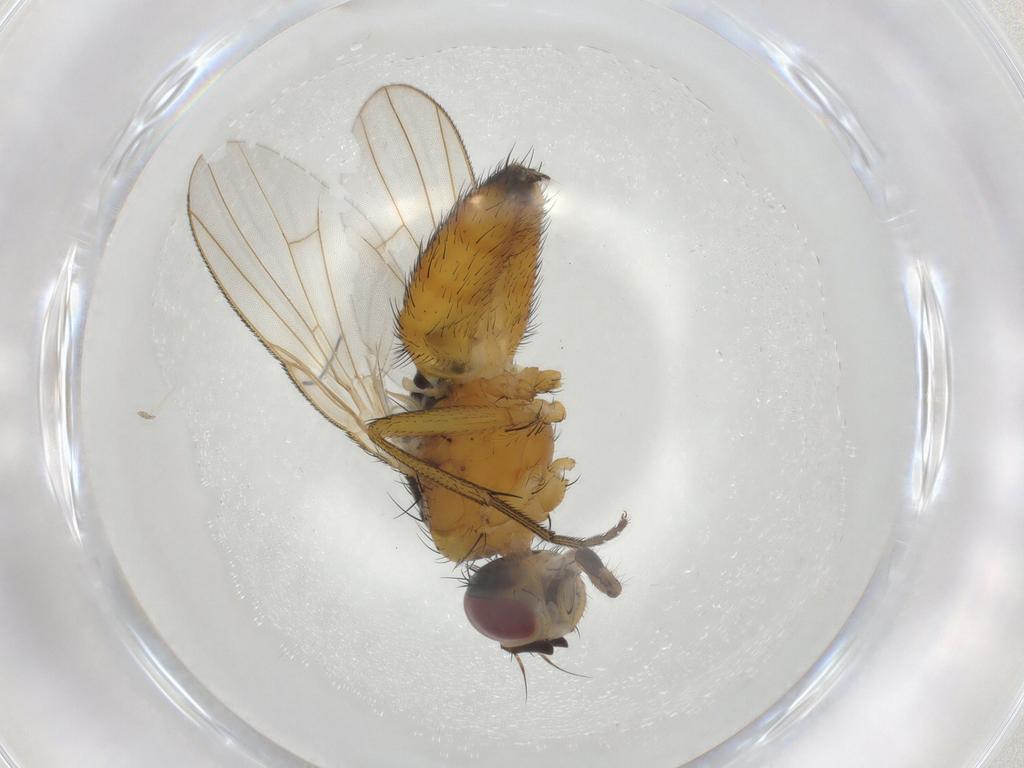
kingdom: Animalia
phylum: Arthropoda
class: Insecta
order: Diptera
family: Muscidae
